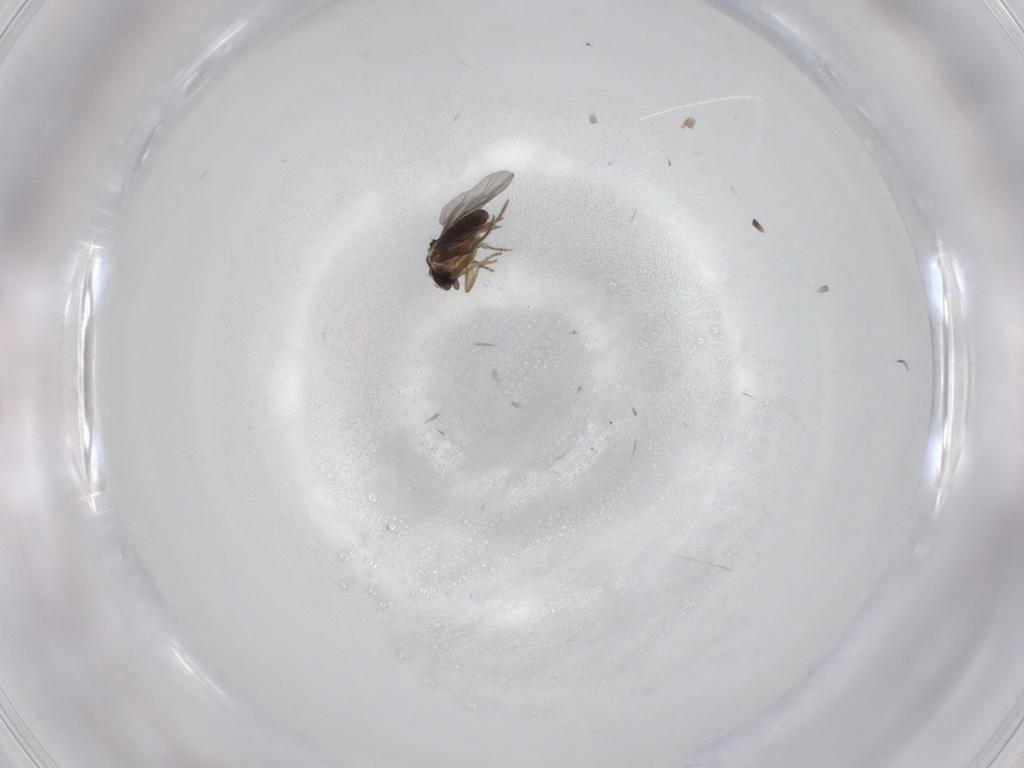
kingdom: Animalia
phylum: Arthropoda
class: Insecta
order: Diptera
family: Chironomidae
